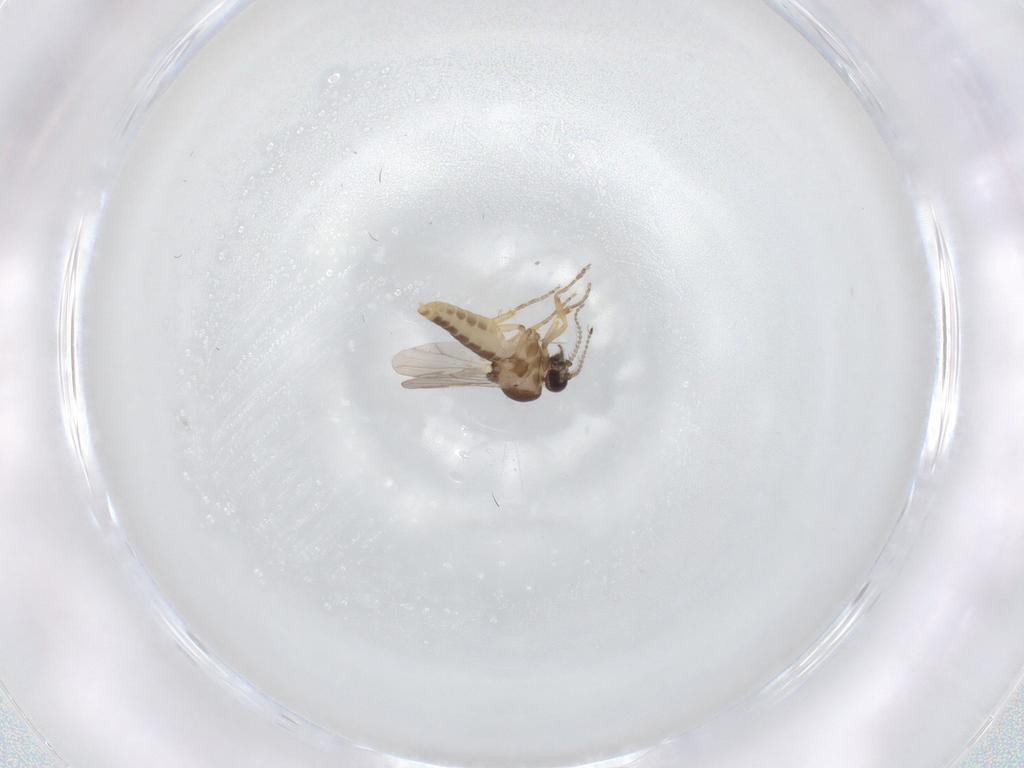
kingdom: Animalia
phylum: Arthropoda
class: Insecta
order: Diptera
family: Ceratopogonidae
